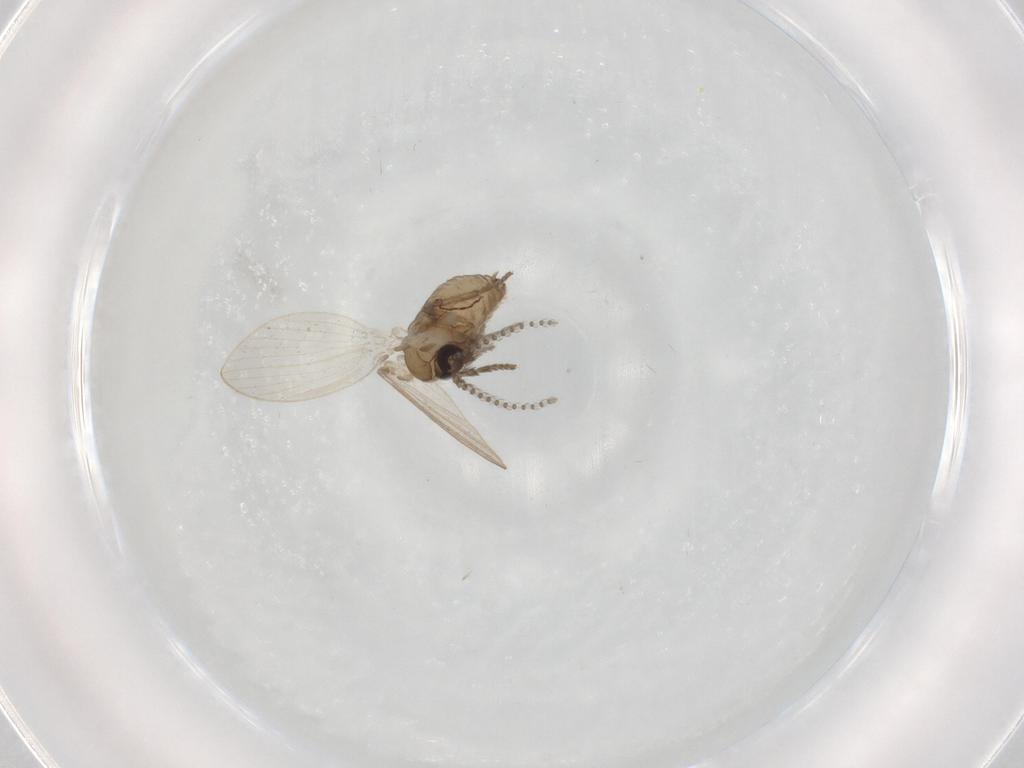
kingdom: Animalia
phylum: Arthropoda
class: Insecta
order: Diptera
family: Psychodidae
